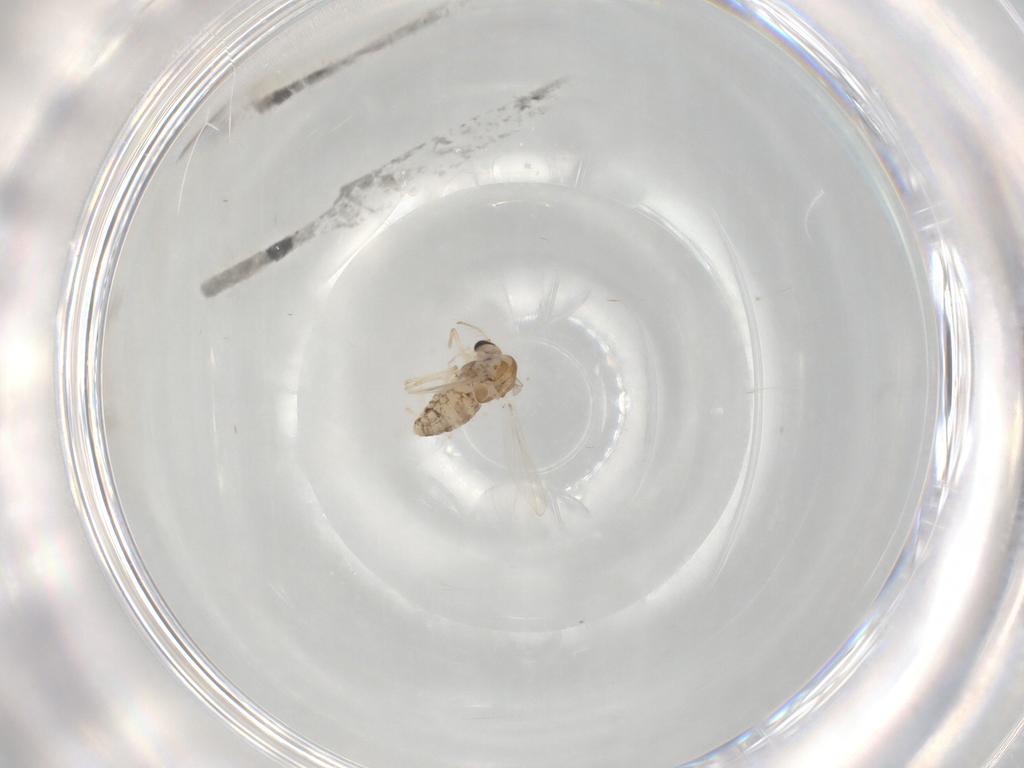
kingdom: Animalia
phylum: Arthropoda
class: Insecta
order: Diptera
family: Chironomidae
